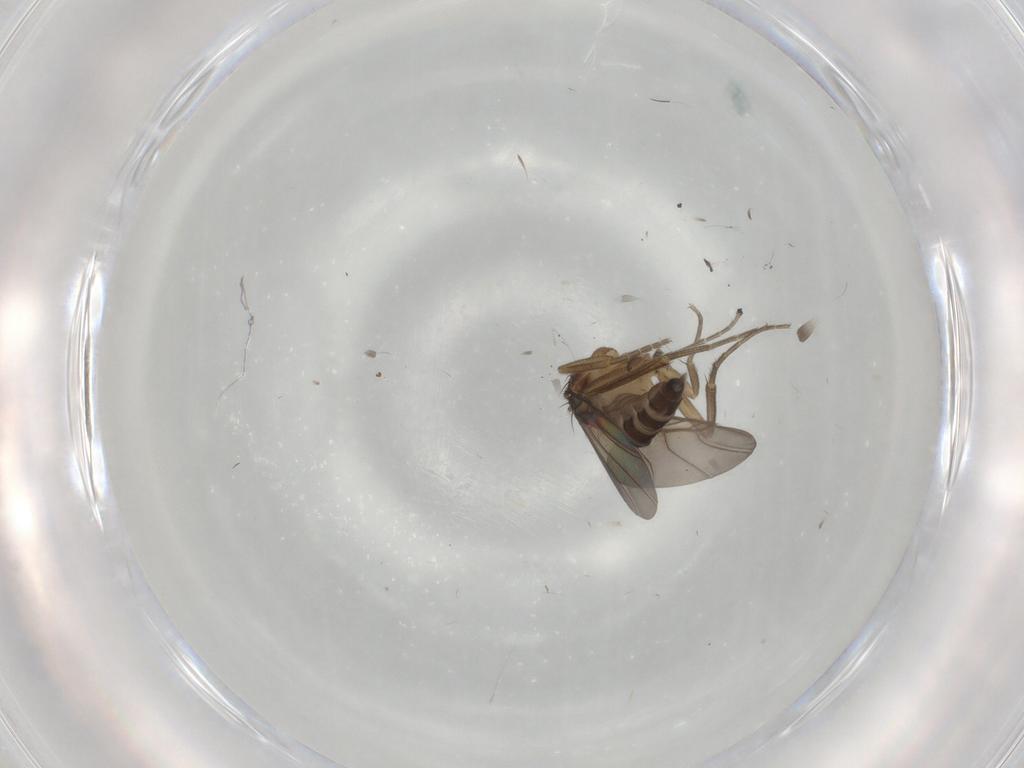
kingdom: Animalia
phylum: Arthropoda
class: Insecta
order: Diptera
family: Phoridae
